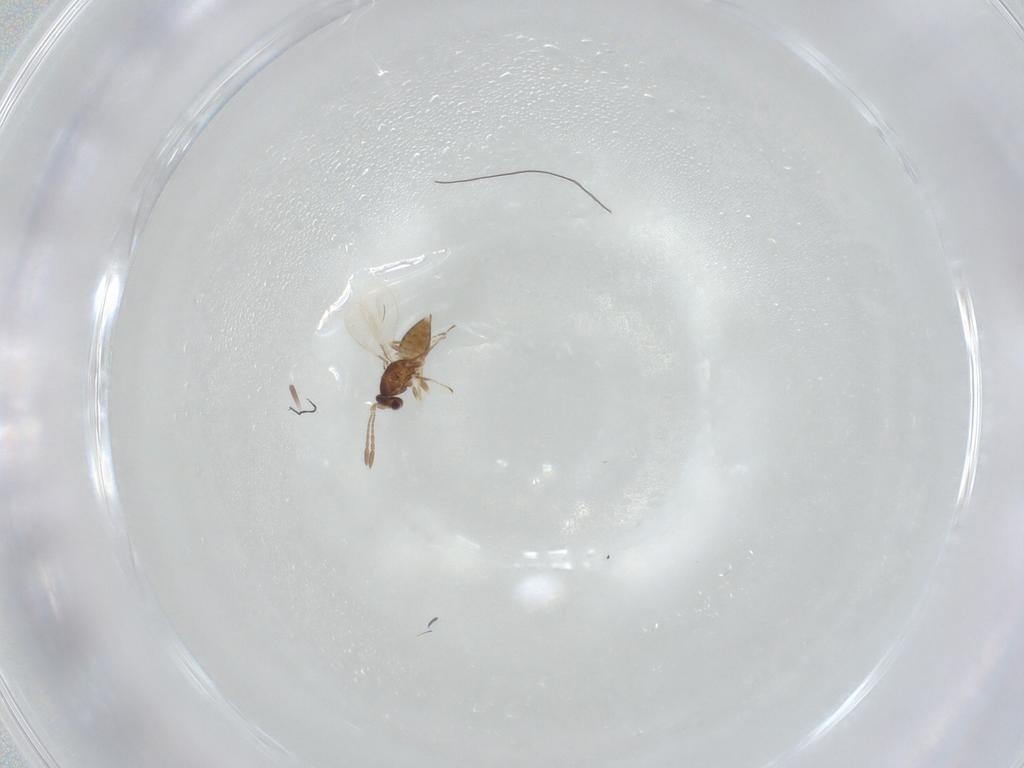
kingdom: Animalia
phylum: Arthropoda
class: Insecta
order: Hymenoptera
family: Mymaridae
